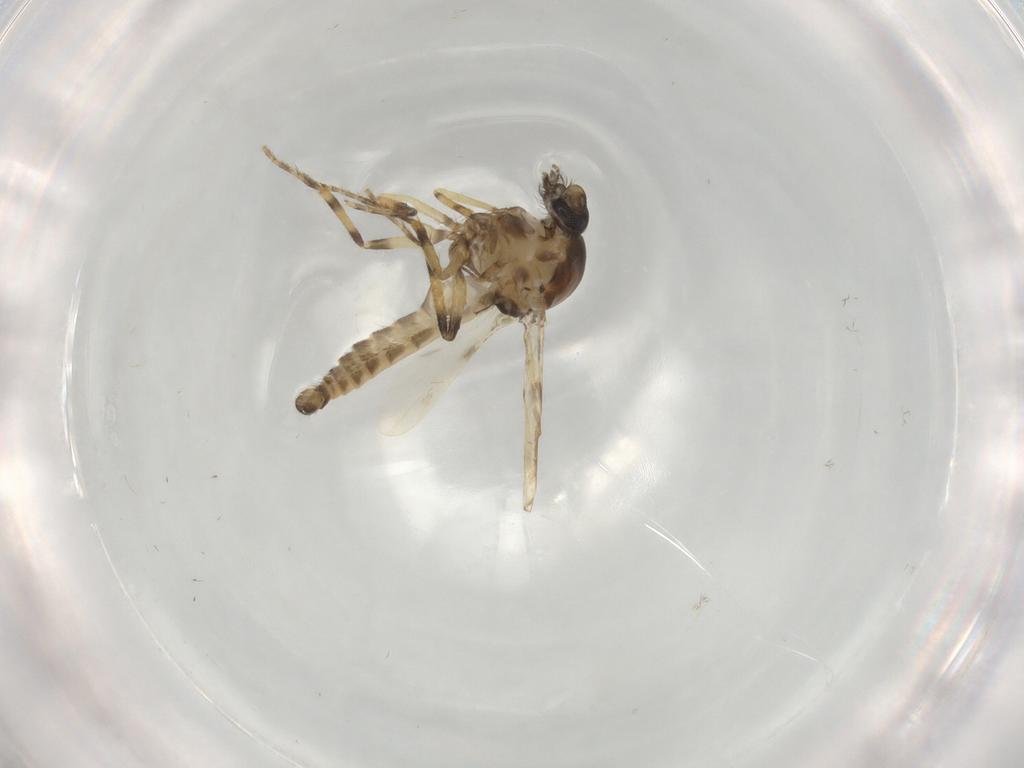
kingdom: Animalia
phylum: Arthropoda
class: Insecta
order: Diptera
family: Ceratopogonidae
